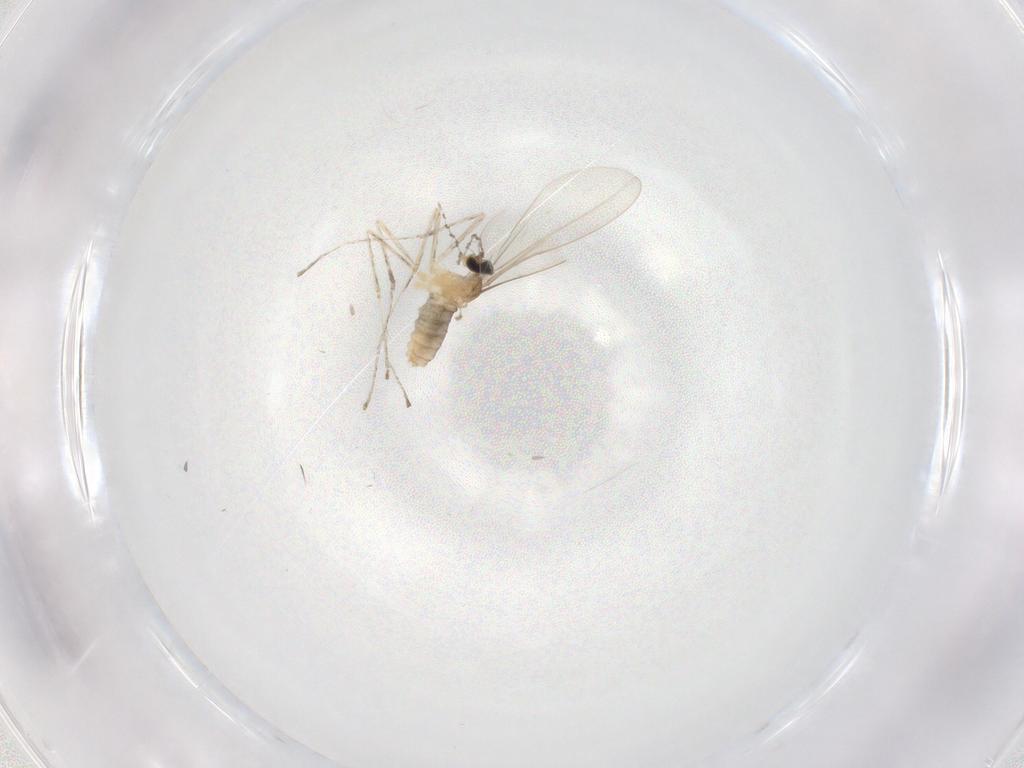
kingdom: Animalia
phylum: Arthropoda
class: Insecta
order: Diptera
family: Cecidomyiidae
